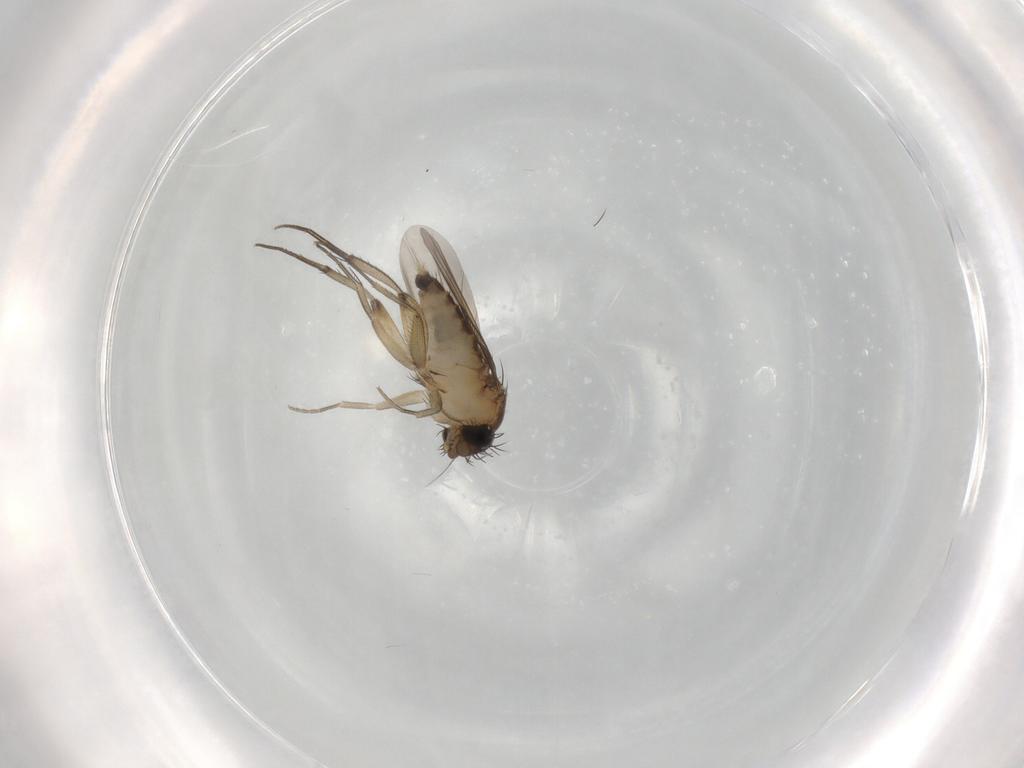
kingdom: Animalia
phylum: Arthropoda
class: Insecta
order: Diptera
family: Phoridae
